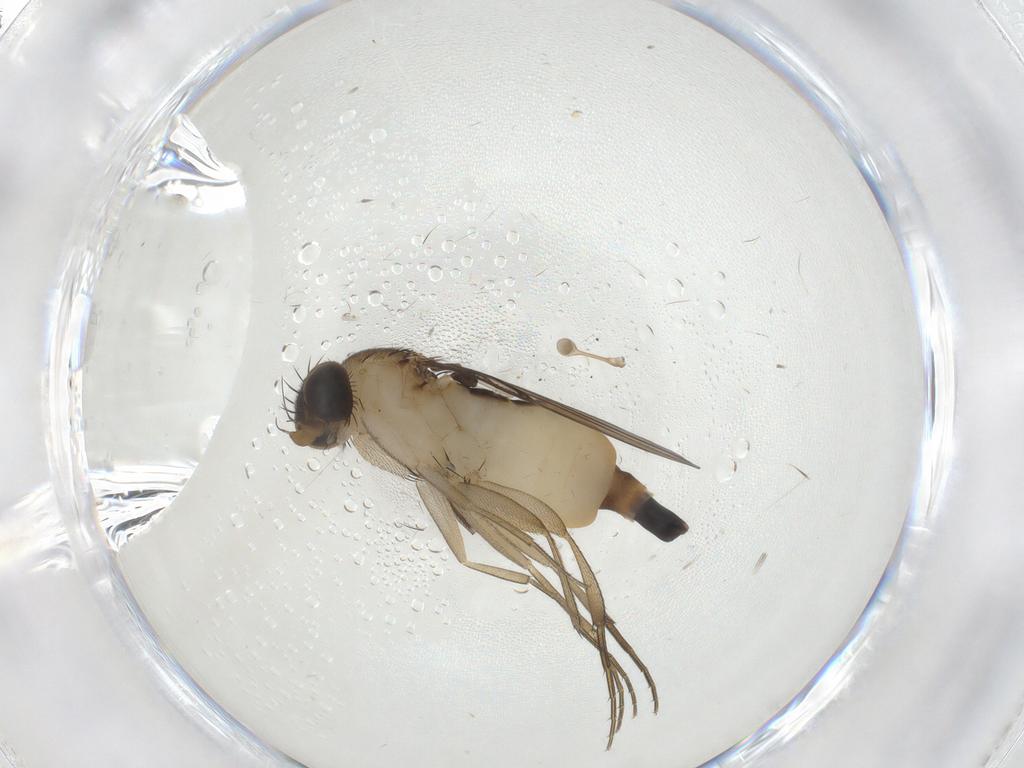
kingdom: Animalia
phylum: Arthropoda
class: Insecta
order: Diptera
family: Phoridae
